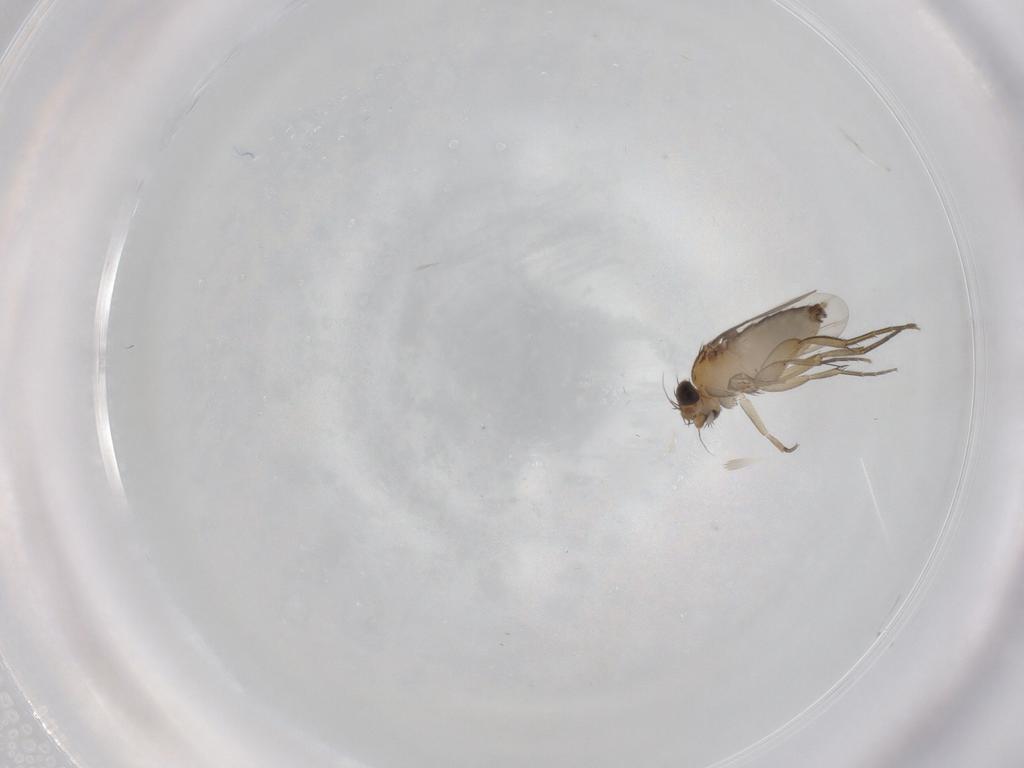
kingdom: Animalia
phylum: Arthropoda
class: Insecta
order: Diptera
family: Phoridae
